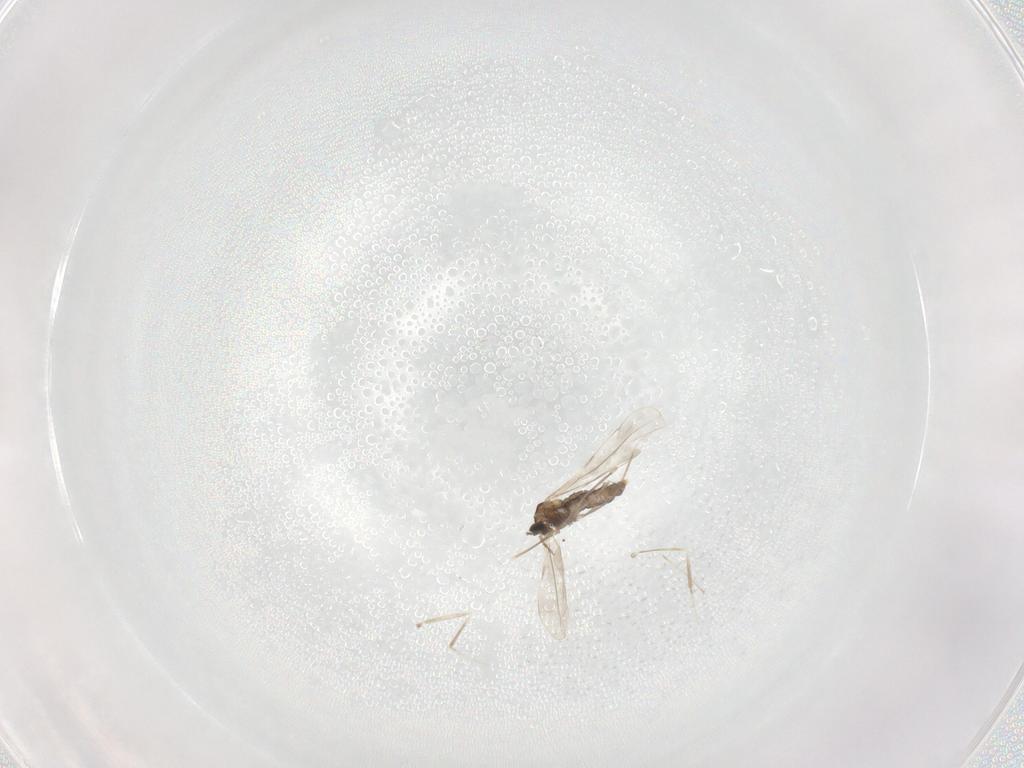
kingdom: Animalia
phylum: Arthropoda
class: Insecta
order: Diptera
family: Cecidomyiidae
